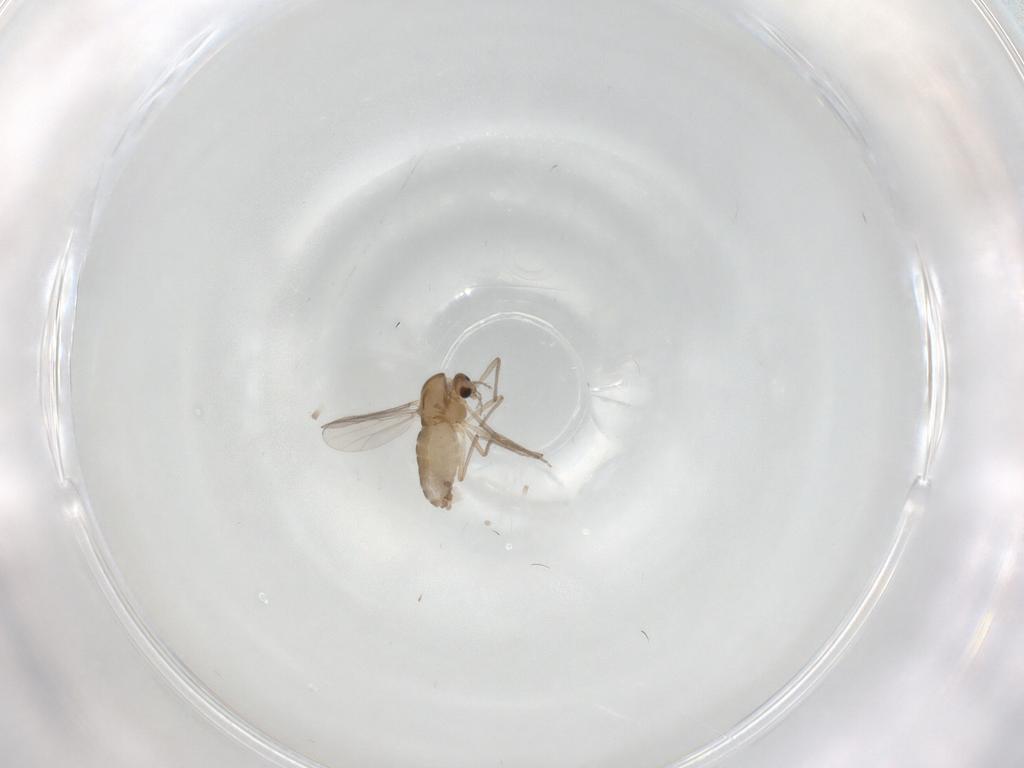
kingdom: Animalia
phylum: Arthropoda
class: Insecta
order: Diptera
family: Chironomidae
